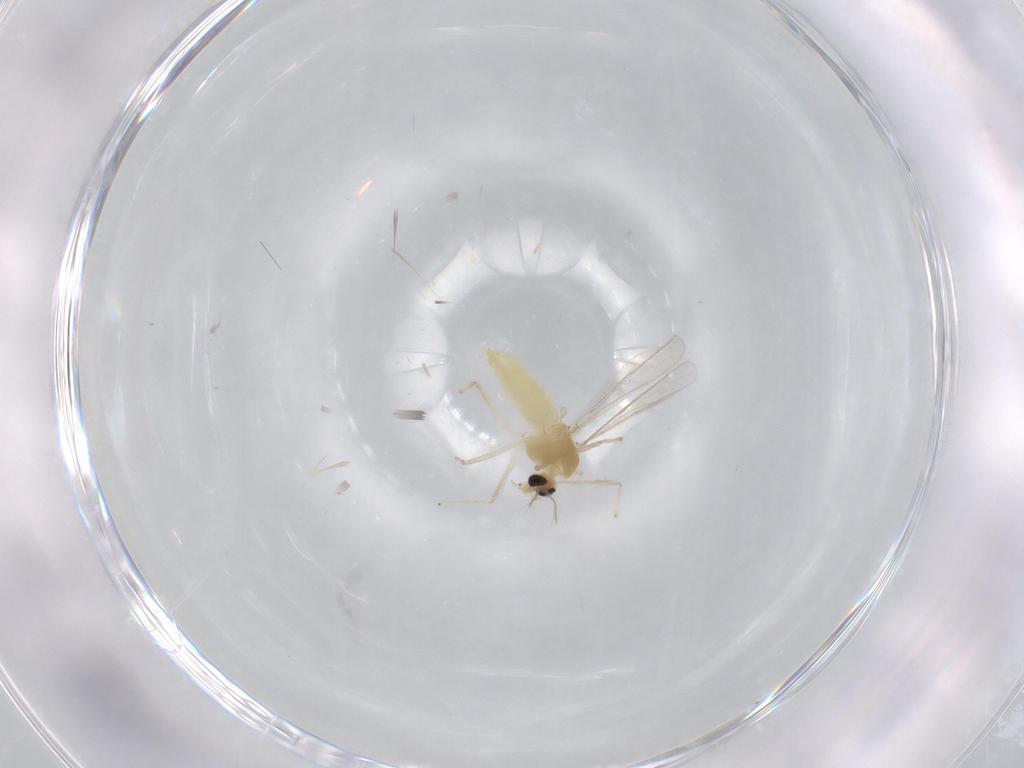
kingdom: Animalia
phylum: Arthropoda
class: Insecta
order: Diptera
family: Chironomidae
